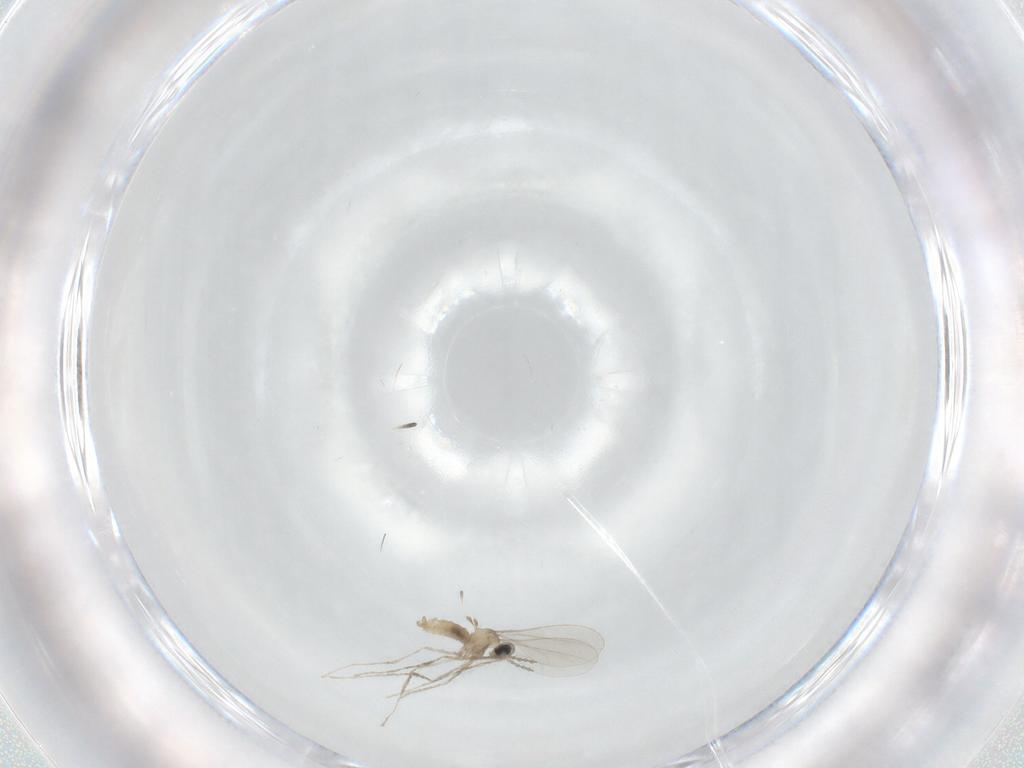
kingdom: Animalia
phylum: Arthropoda
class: Insecta
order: Diptera
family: Cecidomyiidae
